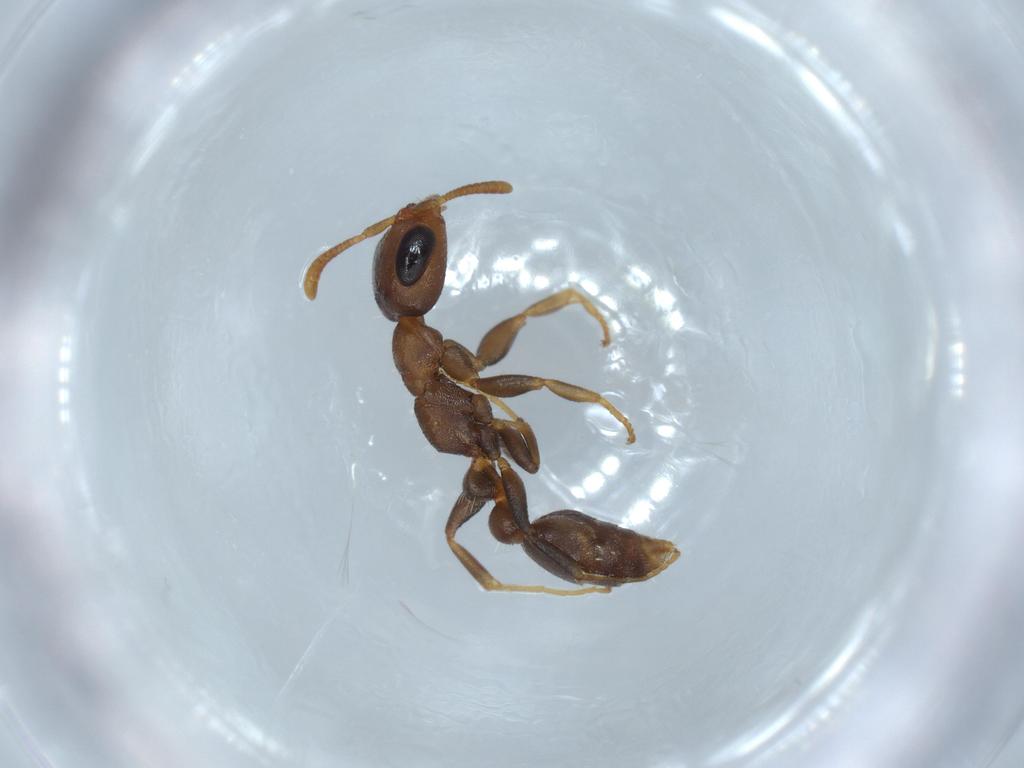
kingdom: Animalia
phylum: Arthropoda
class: Insecta
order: Hymenoptera
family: Formicidae
